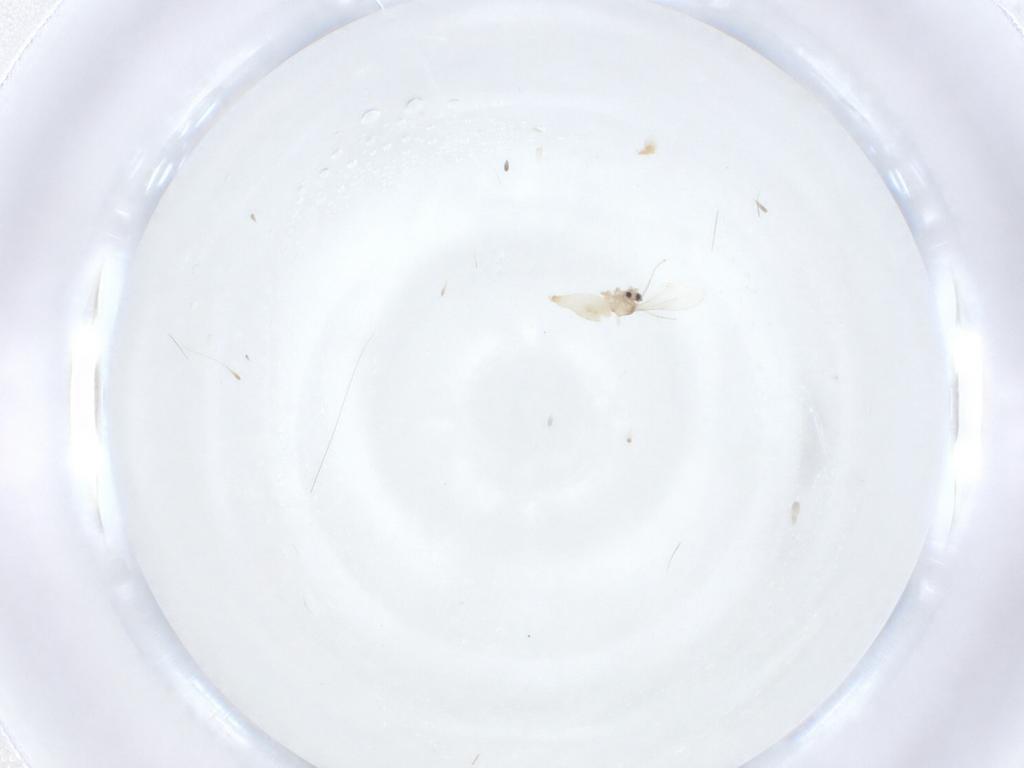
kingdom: Animalia
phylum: Arthropoda
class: Insecta
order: Diptera
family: Cecidomyiidae
